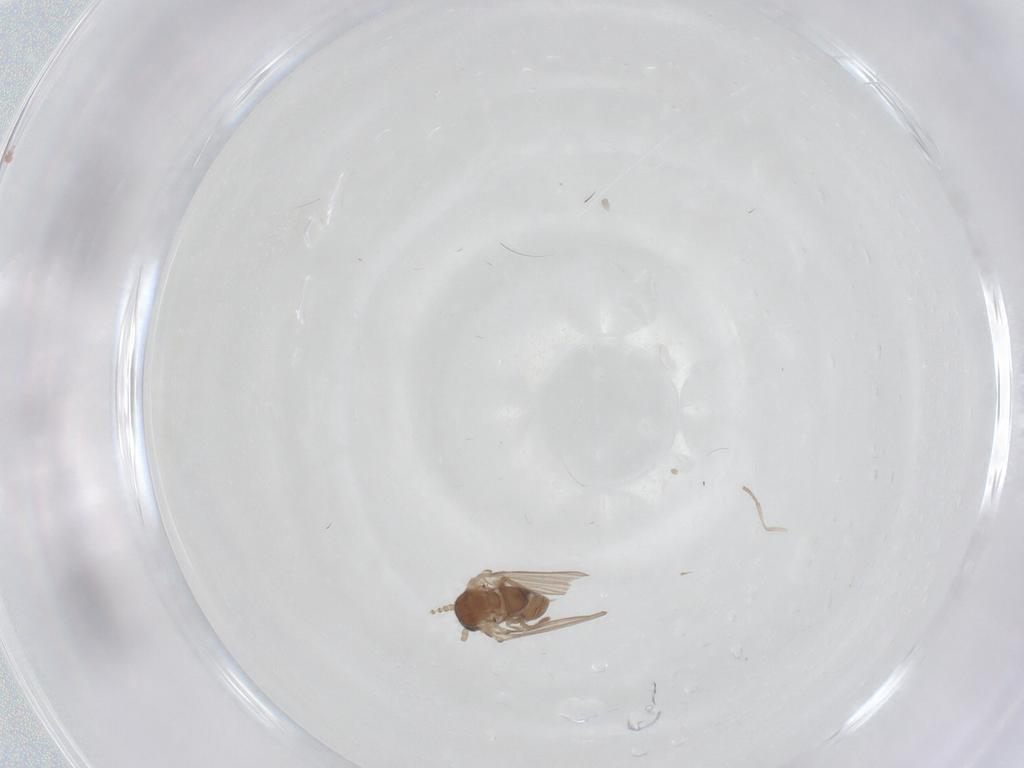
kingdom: Animalia
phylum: Arthropoda
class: Insecta
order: Diptera
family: Psychodidae
